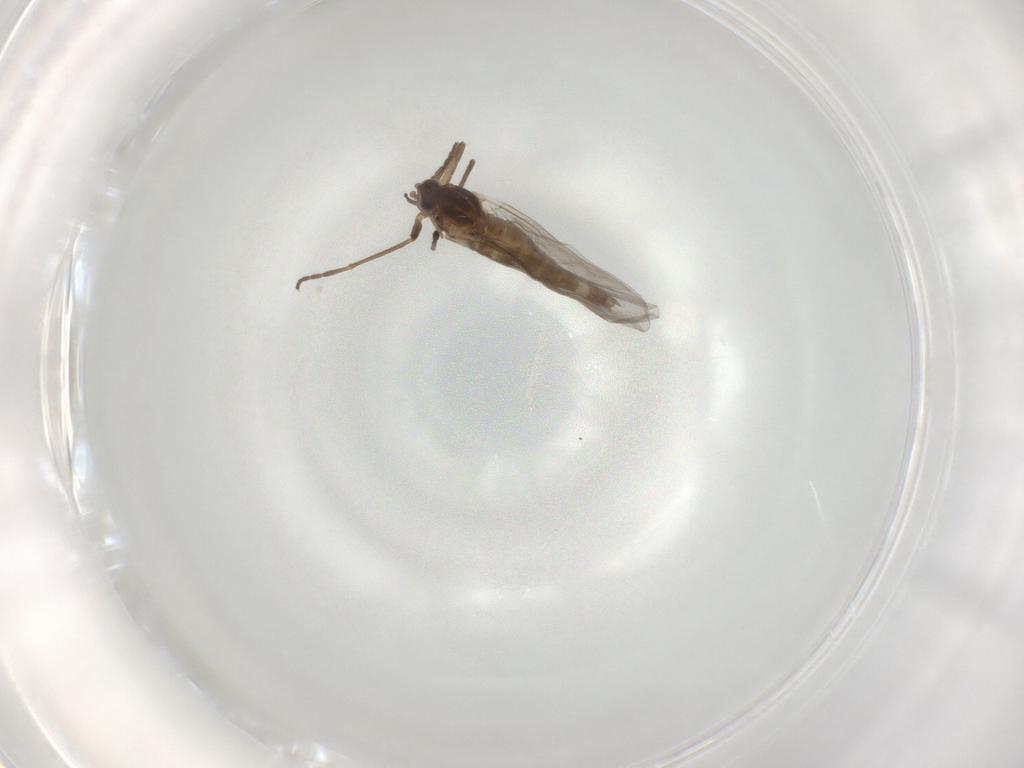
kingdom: Animalia
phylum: Arthropoda
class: Insecta
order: Diptera
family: Cecidomyiidae
